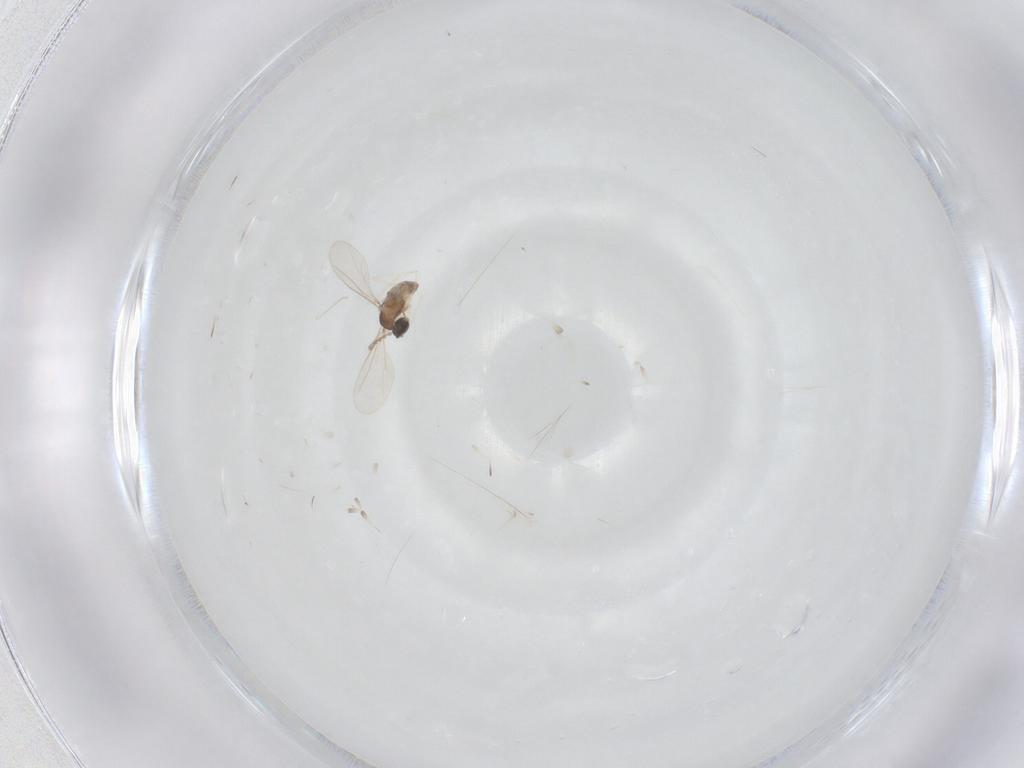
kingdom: Animalia
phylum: Arthropoda
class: Insecta
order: Diptera
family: Cecidomyiidae
